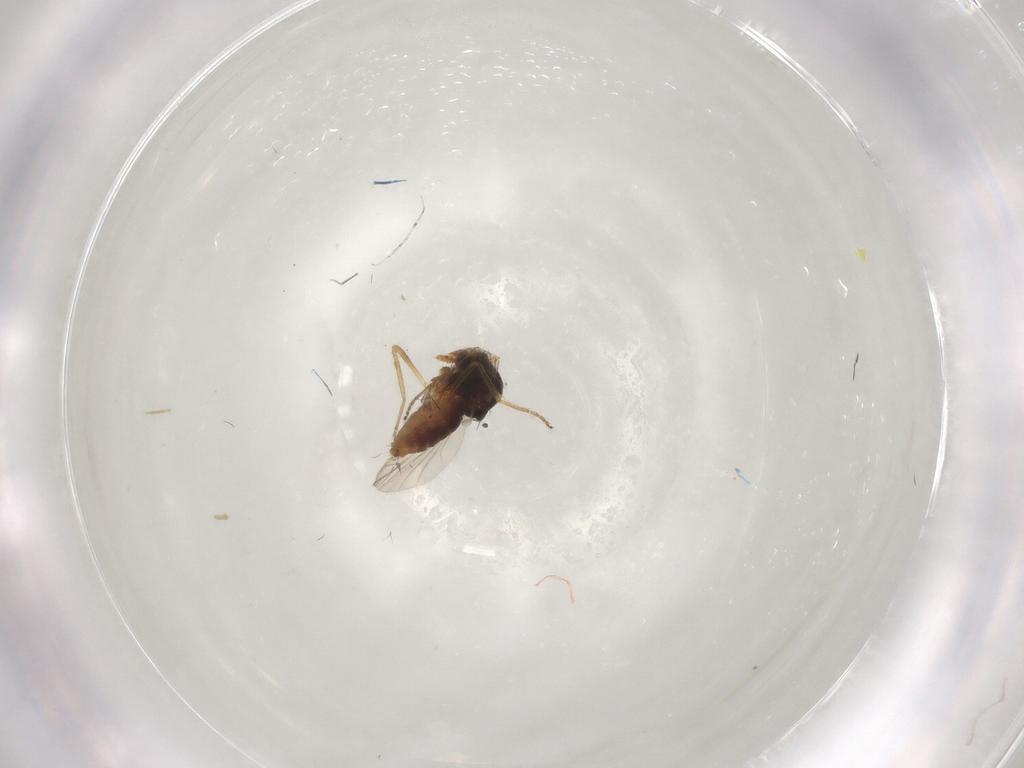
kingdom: Animalia
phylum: Arthropoda
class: Insecta
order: Diptera
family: Ceratopogonidae
